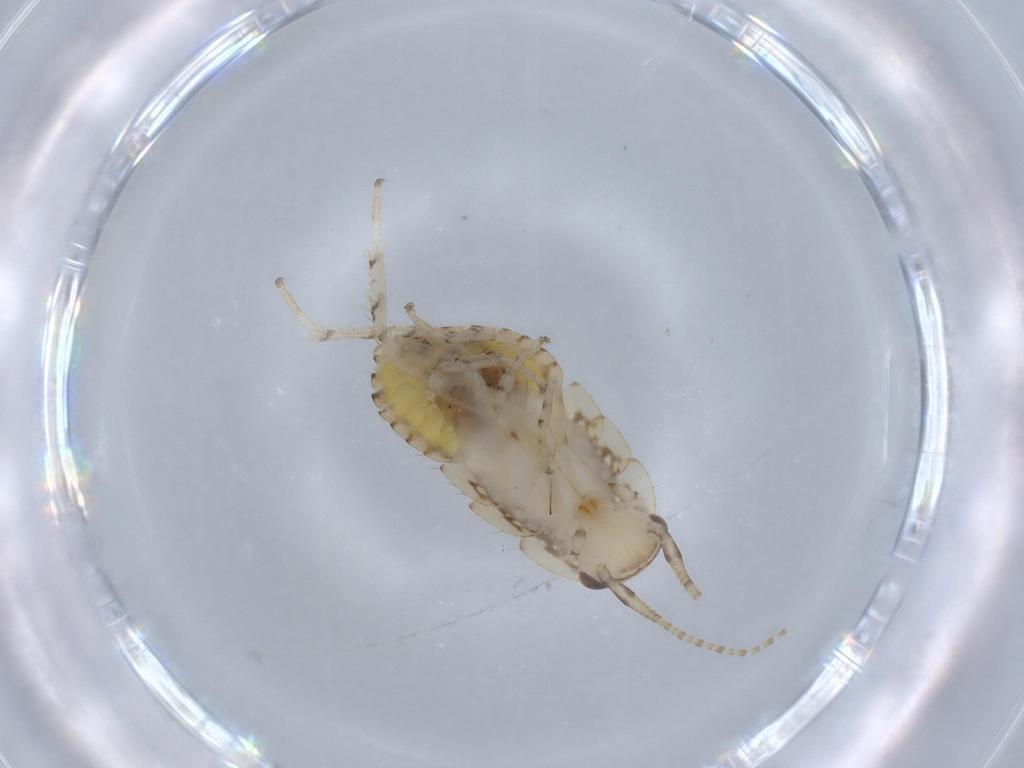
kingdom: Animalia
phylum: Arthropoda
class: Insecta
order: Blattodea
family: Ectobiidae
